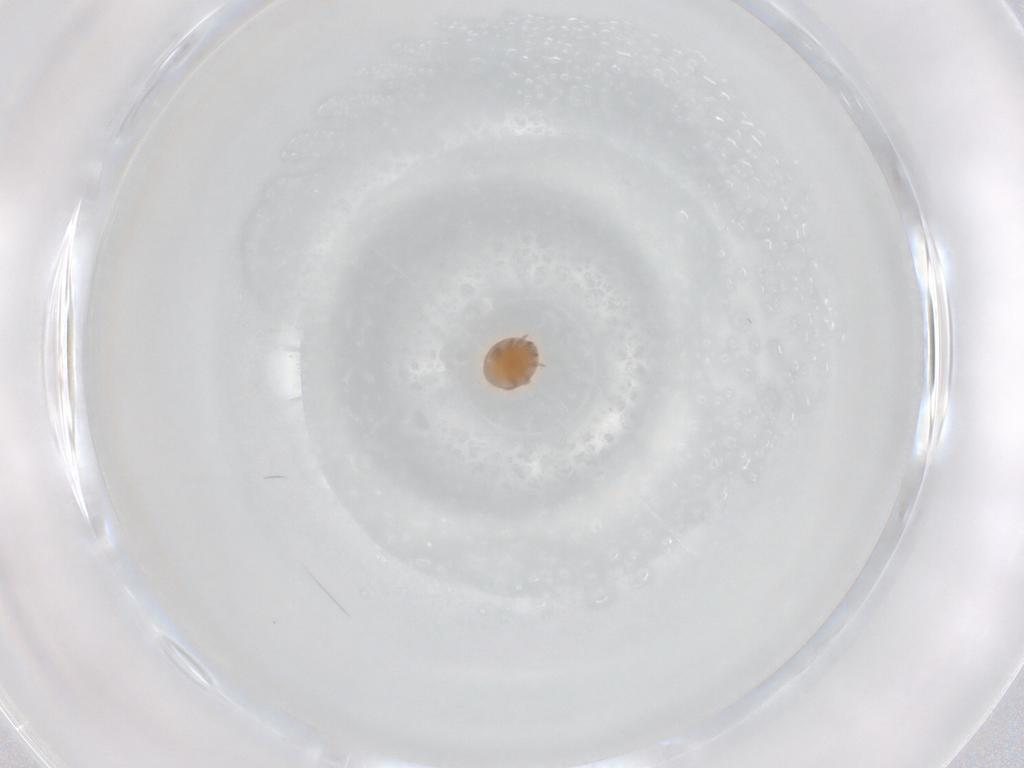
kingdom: Animalia
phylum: Arthropoda
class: Arachnida
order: Mesostigmata
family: Trematuridae
